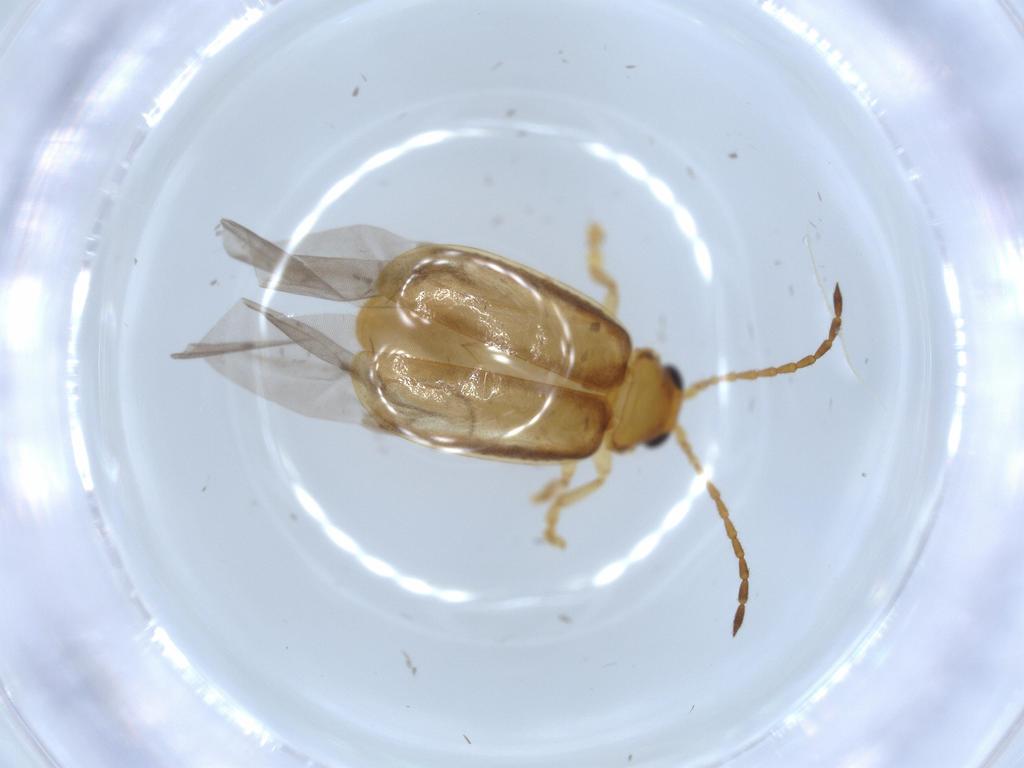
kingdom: Animalia
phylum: Arthropoda
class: Insecta
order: Coleoptera
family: Chrysomelidae
